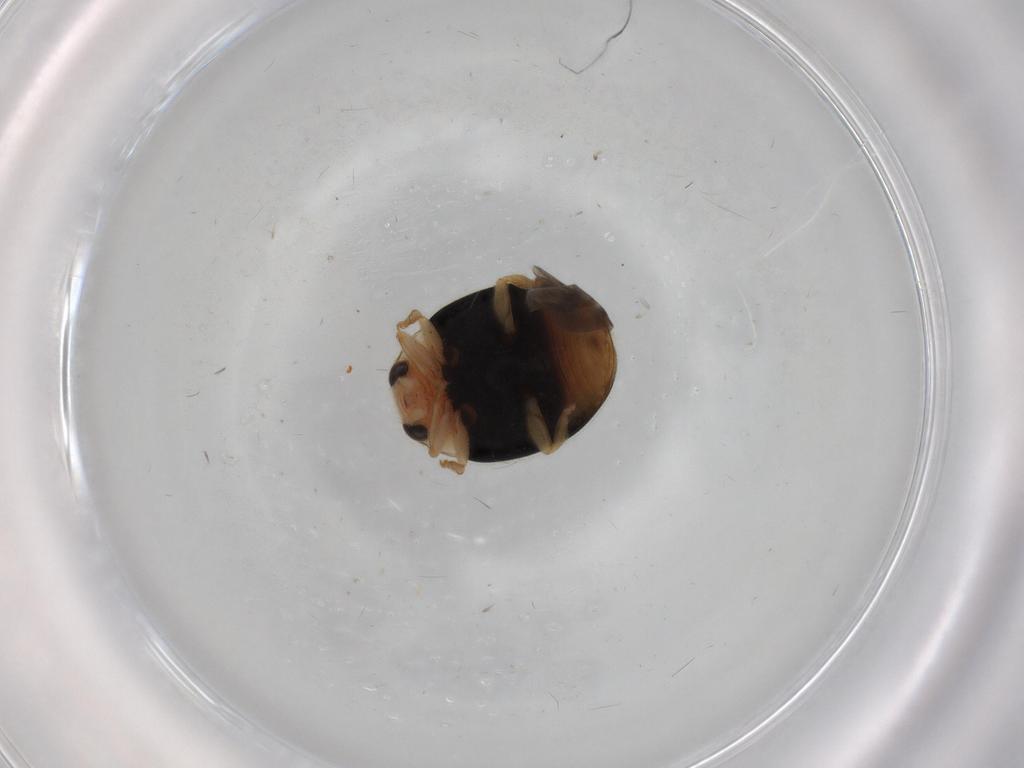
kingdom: Animalia
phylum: Arthropoda
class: Insecta
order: Coleoptera
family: Coccinellidae
